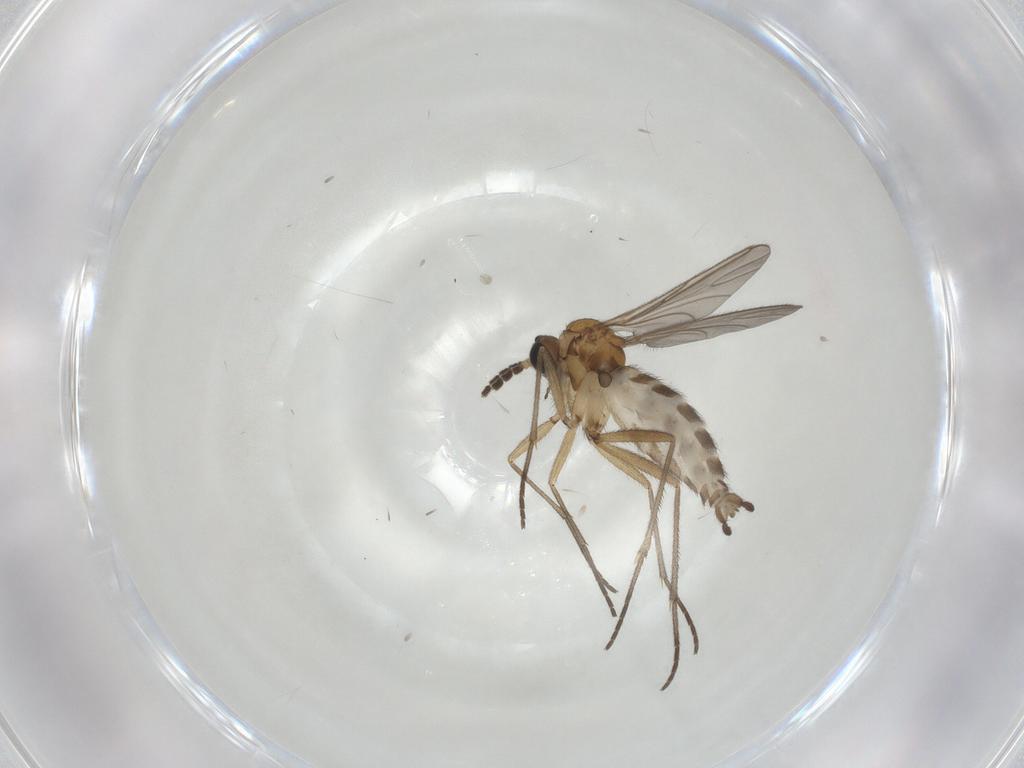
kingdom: Animalia
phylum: Arthropoda
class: Insecta
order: Diptera
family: Sciaridae
